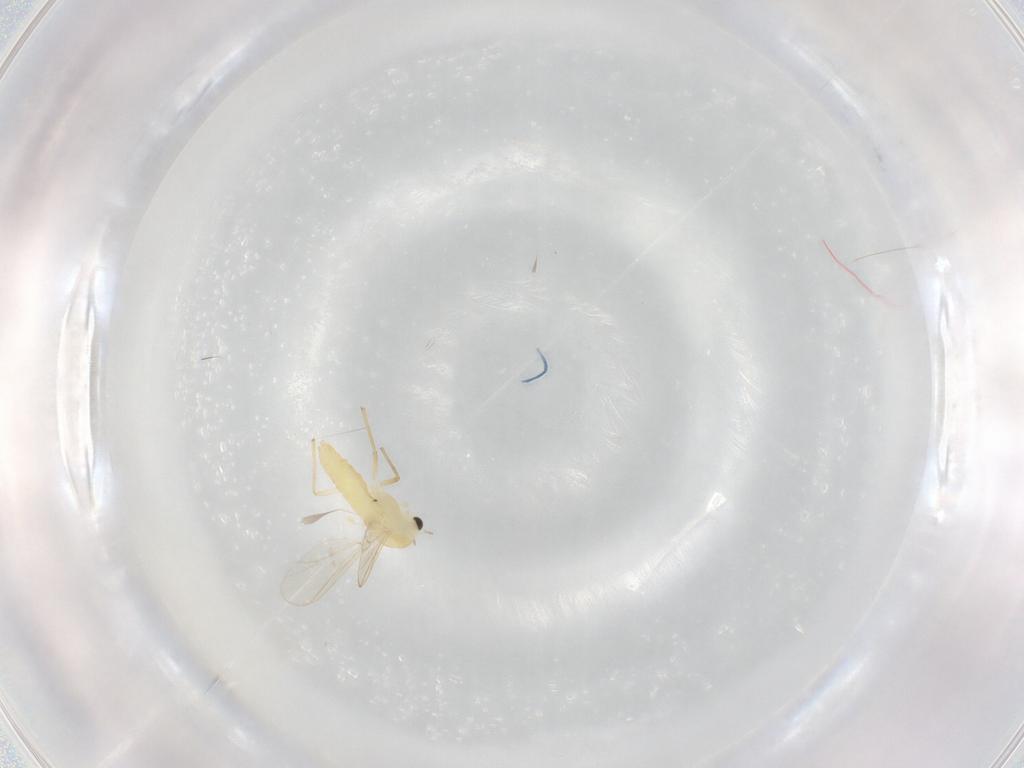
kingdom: Animalia
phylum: Arthropoda
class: Insecta
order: Diptera
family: Chironomidae
